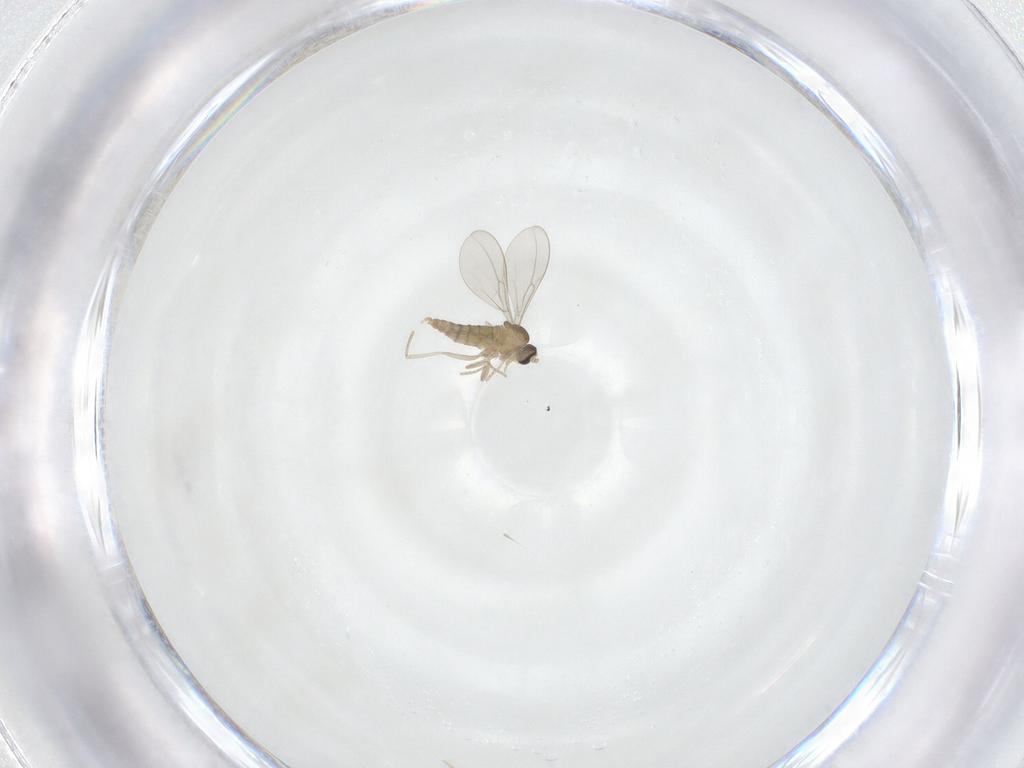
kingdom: Animalia
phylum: Arthropoda
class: Insecta
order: Diptera
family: Cecidomyiidae
